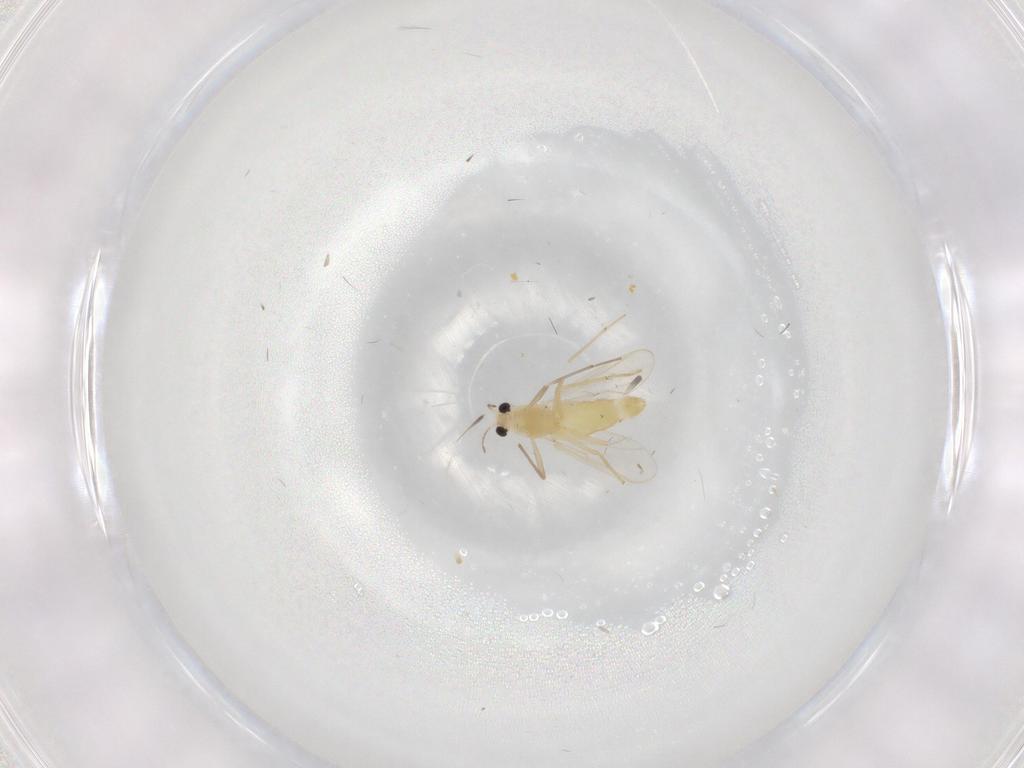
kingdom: Animalia
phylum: Arthropoda
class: Insecta
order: Diptera
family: Chironomidae
